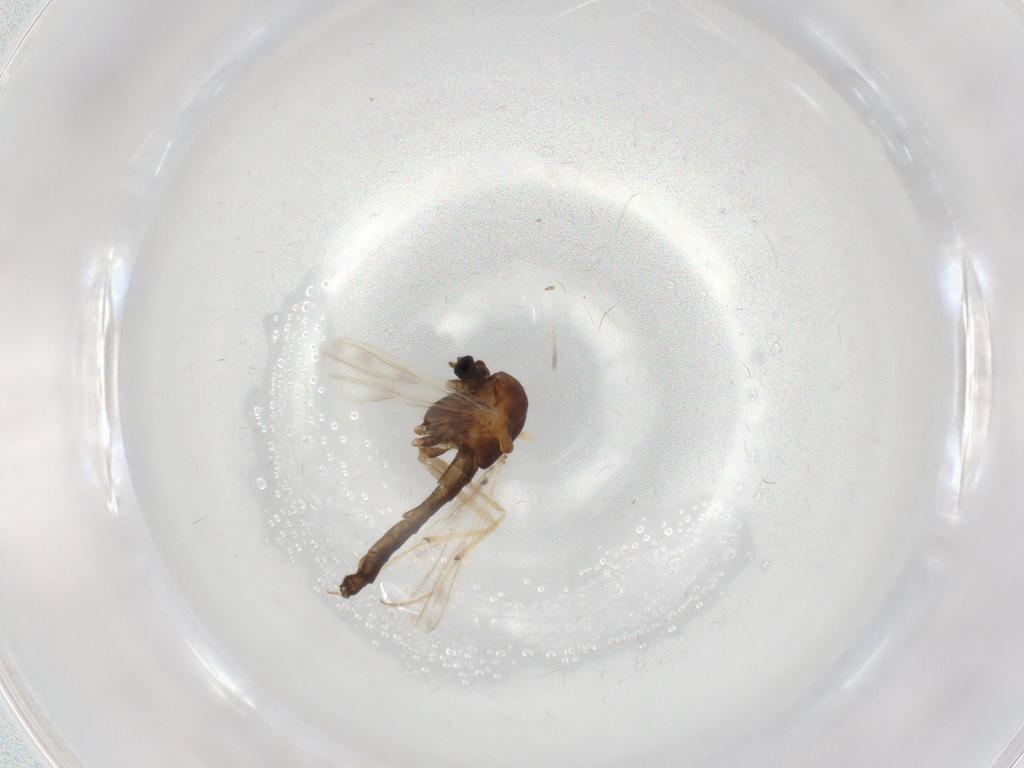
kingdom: Animalia
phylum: Arthropoda
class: Insecta
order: Diptera
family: Chironomidae
